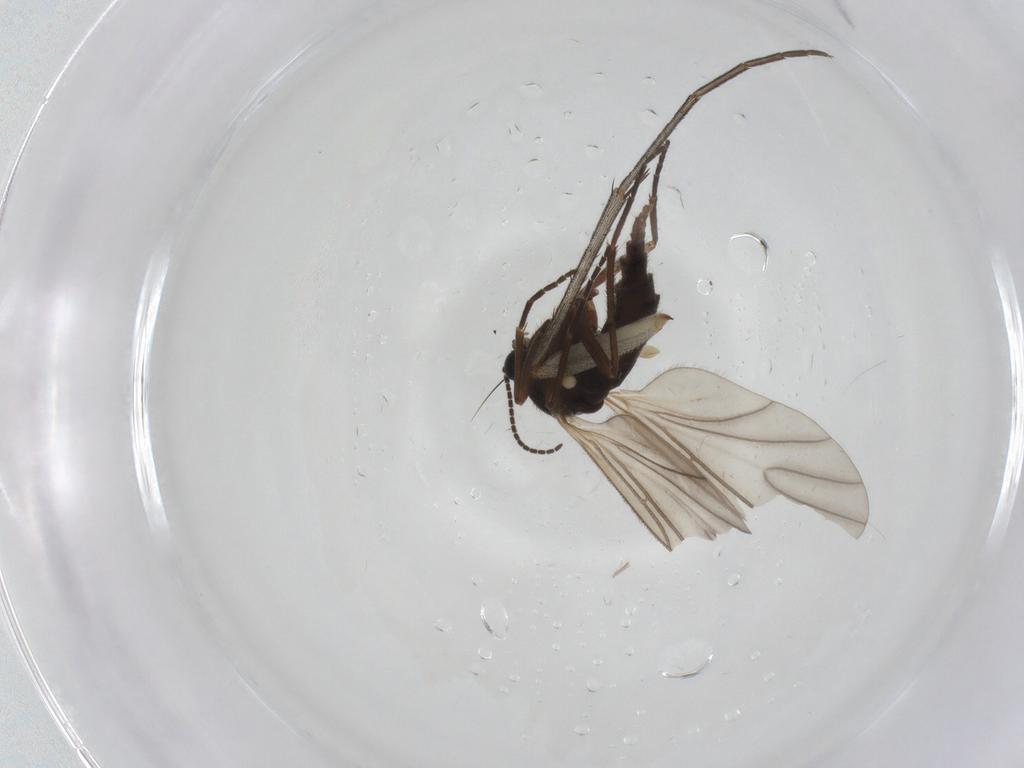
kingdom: Animalia
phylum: Arthropoda
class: Insecta
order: Diptera
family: Sciaridae
